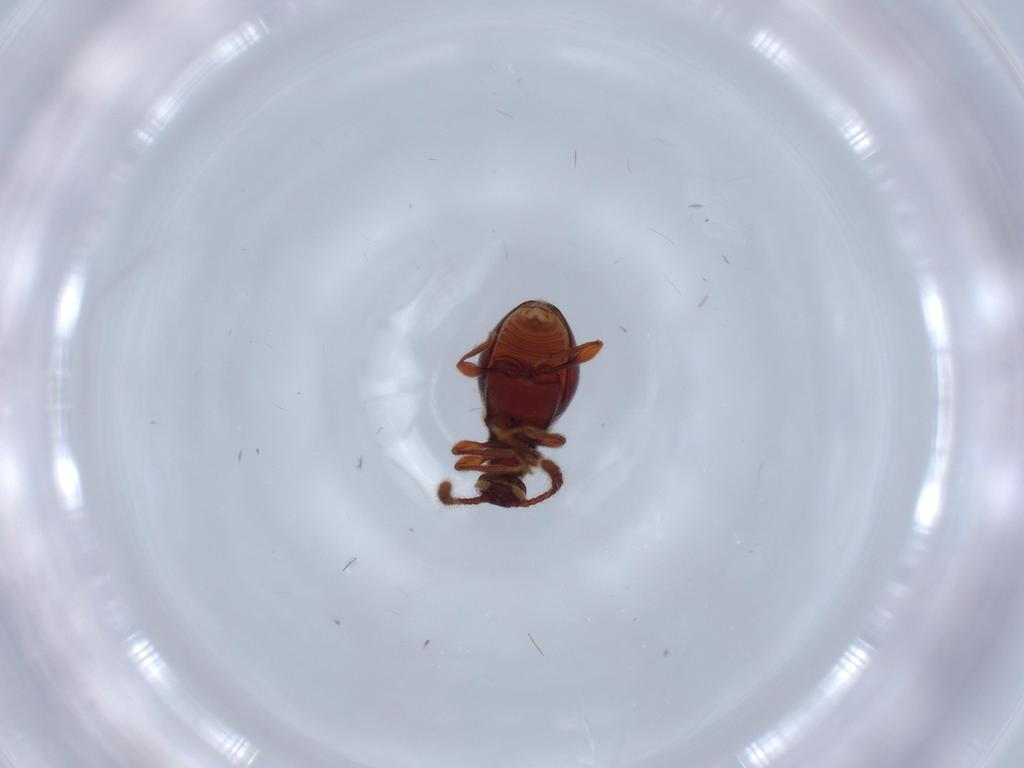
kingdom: Animalia
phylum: Arthropoda
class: Insecta
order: Coleoptera
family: Staphylinidae
